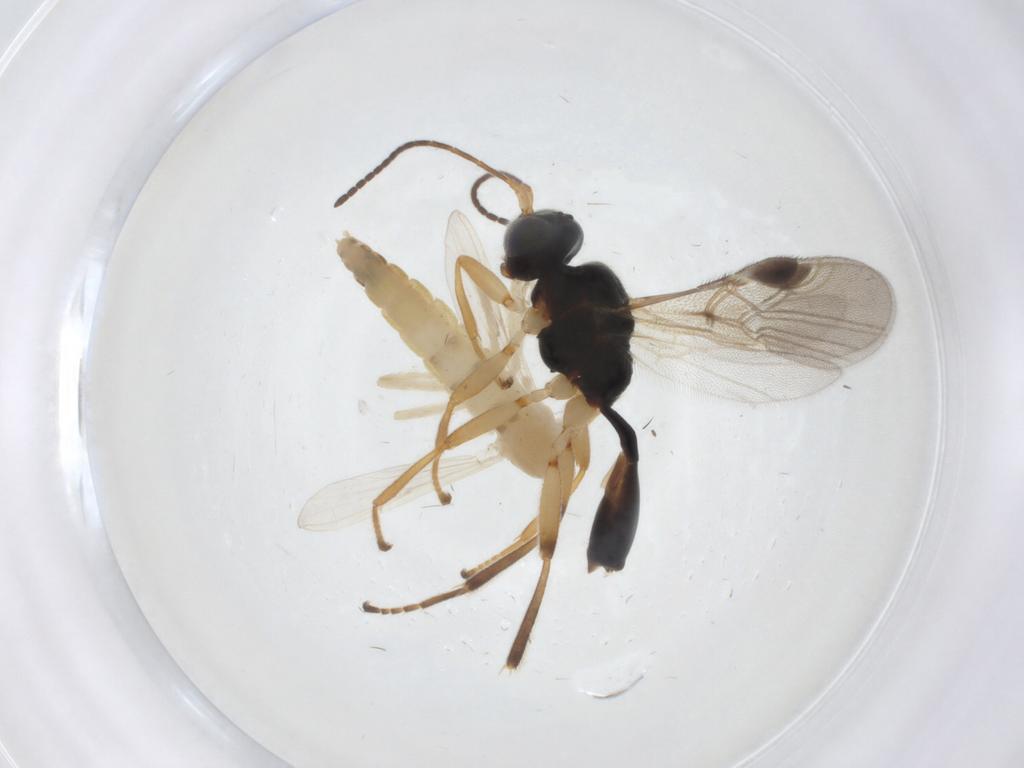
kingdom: Animalia
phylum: Arthropoda
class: Insecta
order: Diptera
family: Chironomidae
